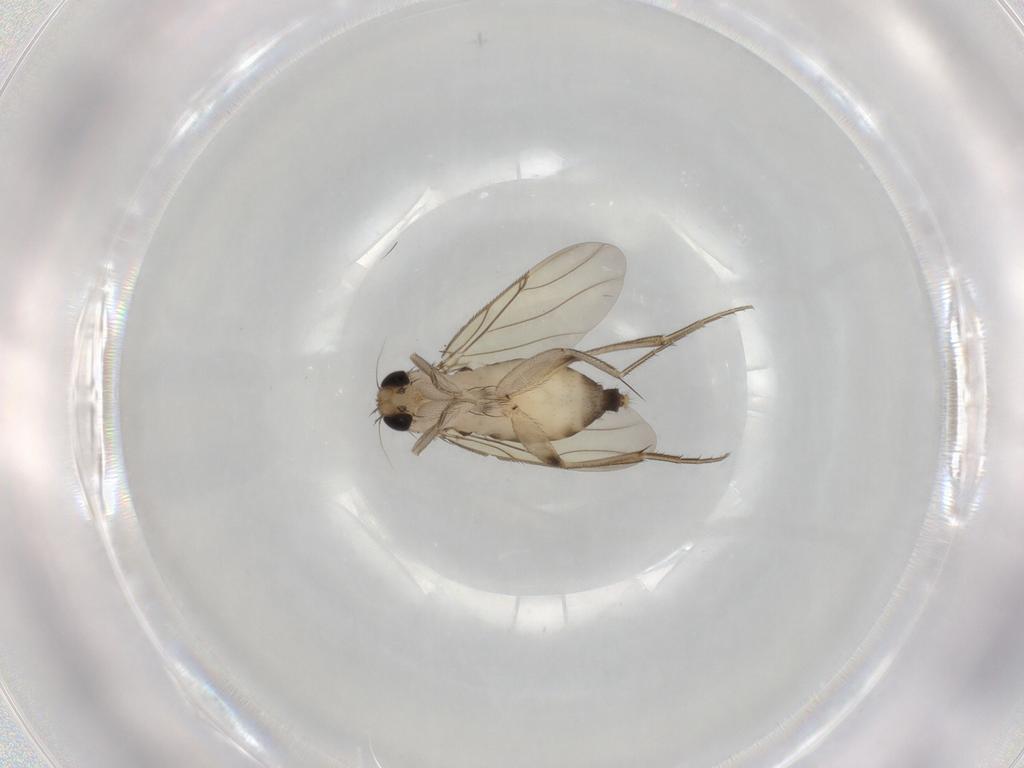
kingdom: Animalia
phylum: Arthropoda
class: Insecta
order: Diptera
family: Phoridae
